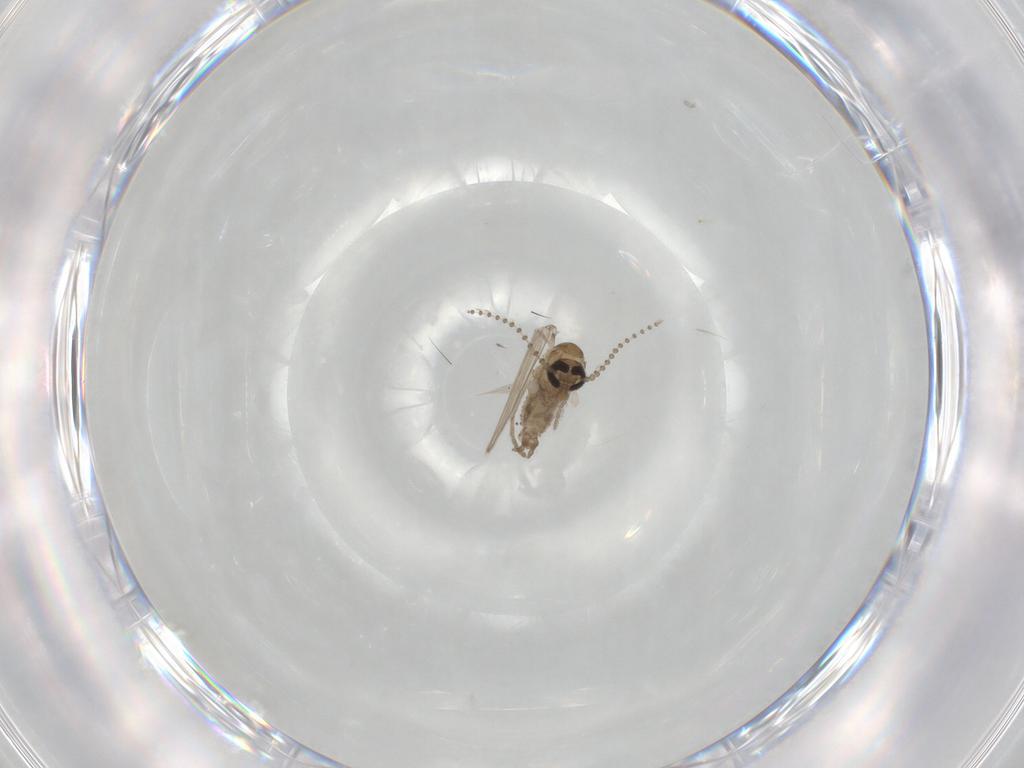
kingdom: Animalia
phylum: Arthropoda
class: Insecta
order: Diptera
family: Psychodidae
